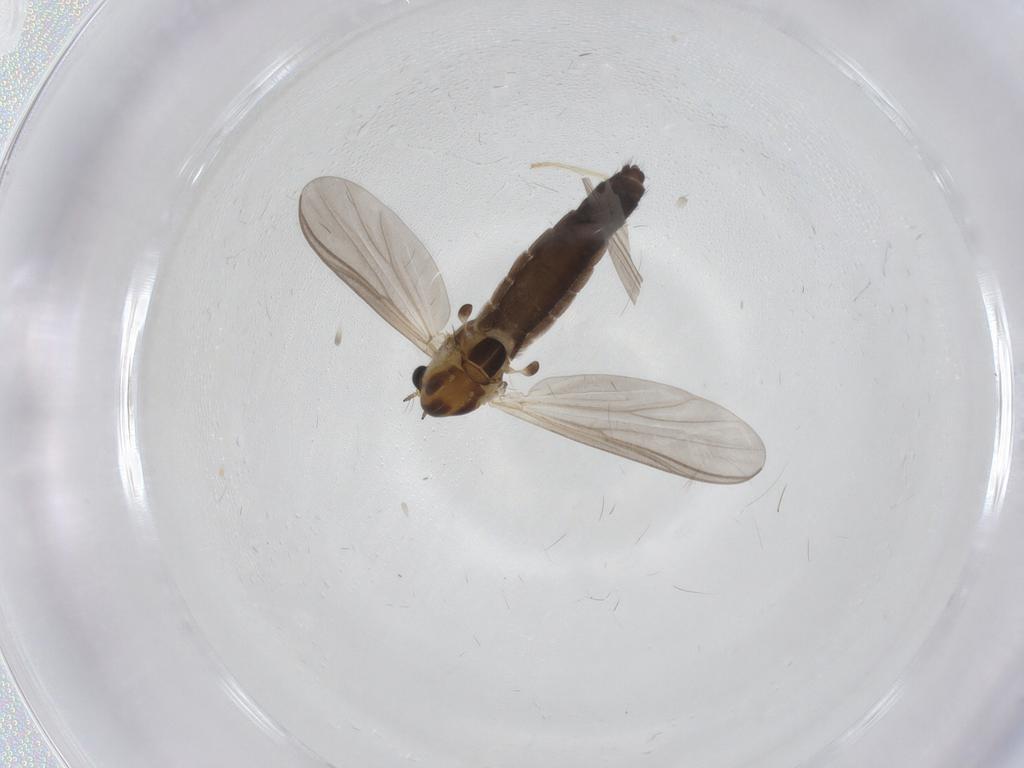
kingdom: Animalia
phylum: Arthropoda
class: Insecta
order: Diptera
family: Chironomidae
